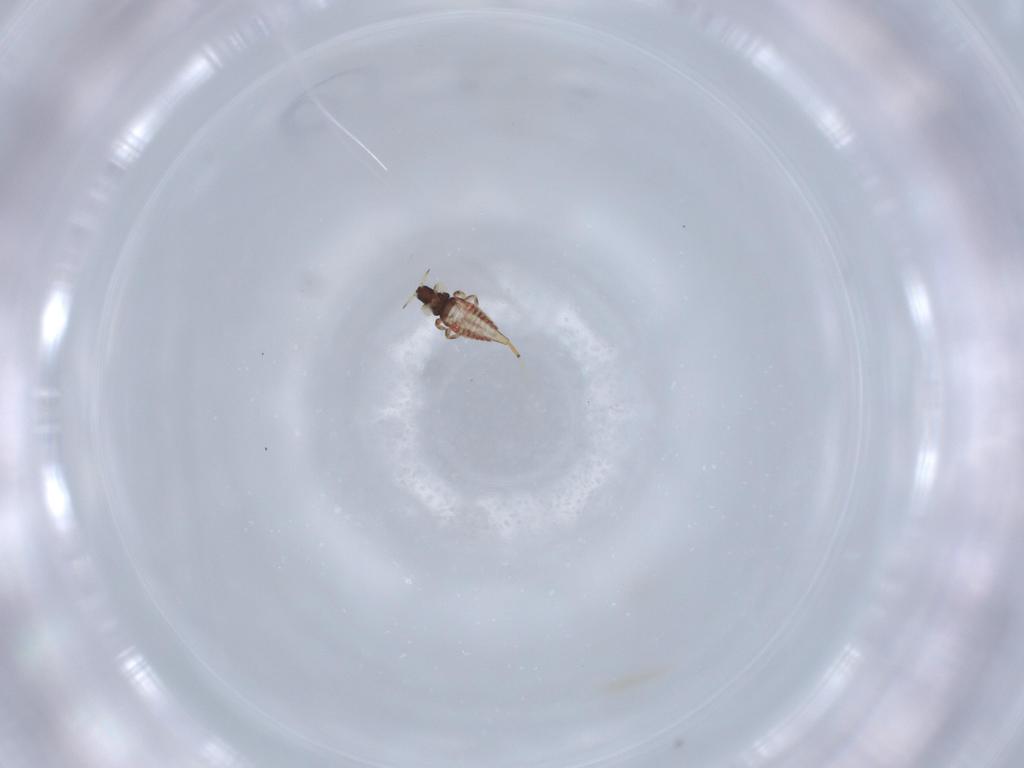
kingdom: Animalia
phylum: Arthropoda
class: Insecta
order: Thysanoptera
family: Phlaeothripidae
